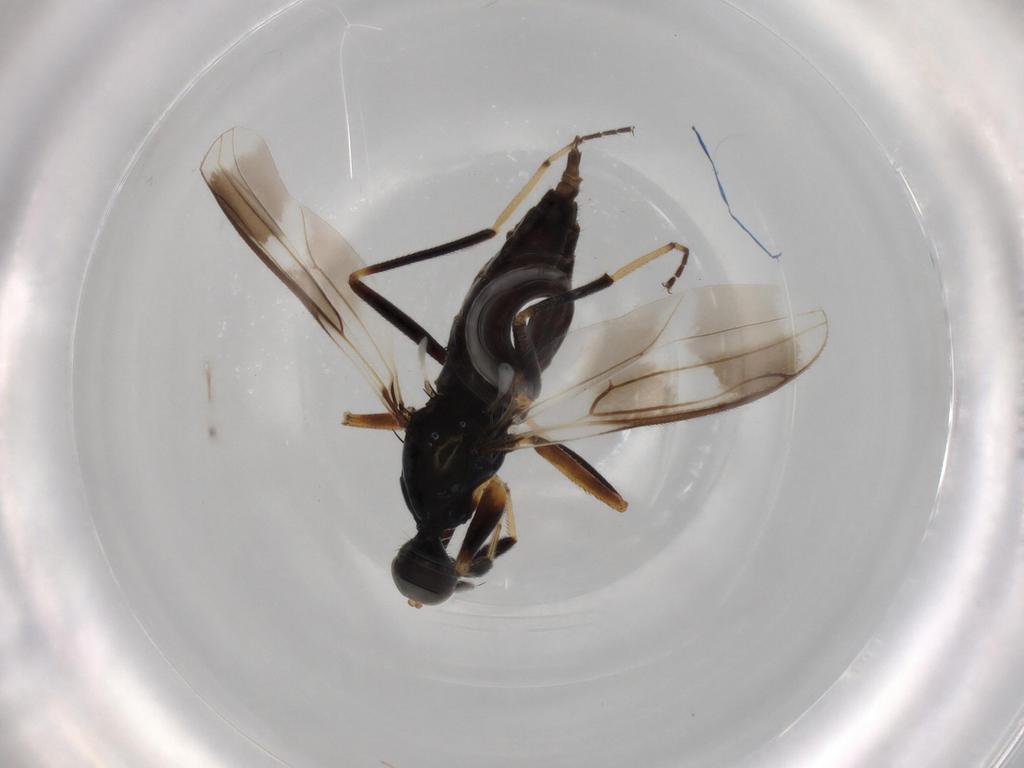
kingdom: Animalia
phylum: Arthropoda
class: Insecta
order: Diptera
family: Hybotidae
